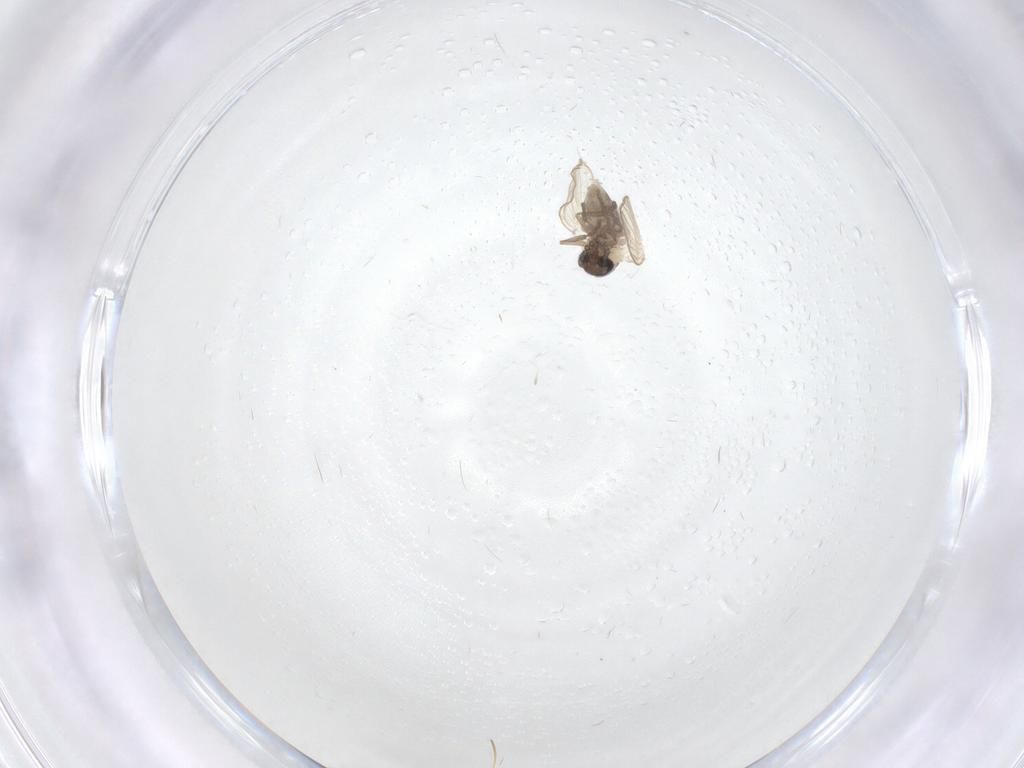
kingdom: Animalia
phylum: Arthropoda
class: Insecta
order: Diptera
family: Psychodidae
